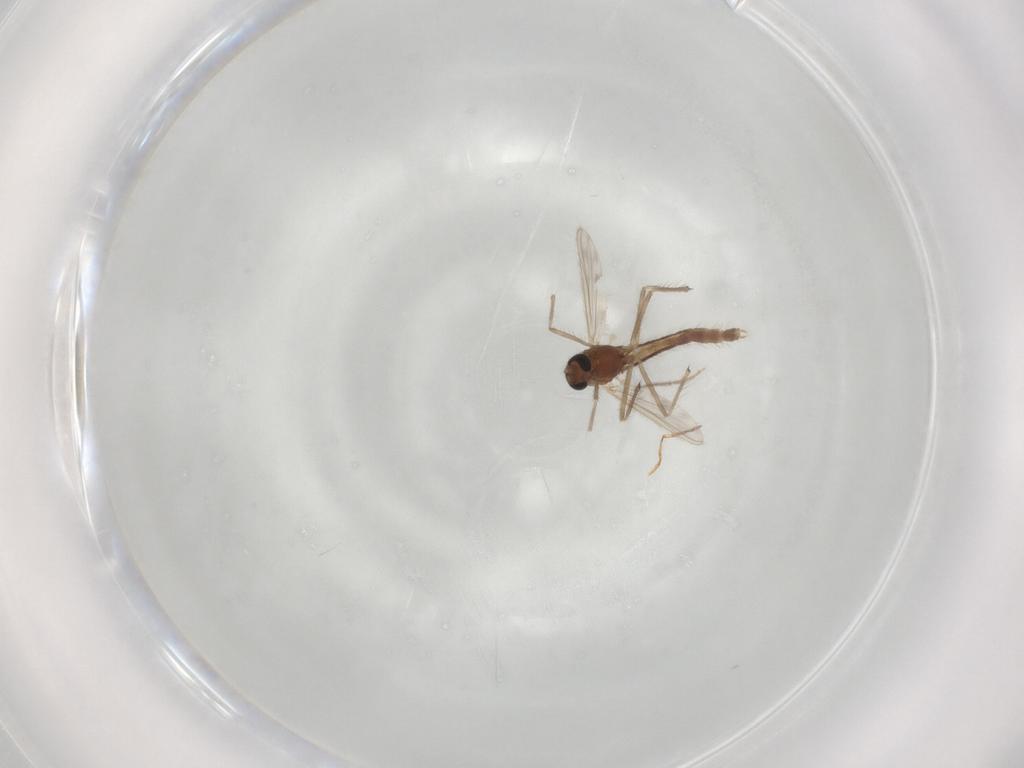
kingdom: Animalia
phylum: Arthropoda
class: Insecta
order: Diptera
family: Chironomidae
